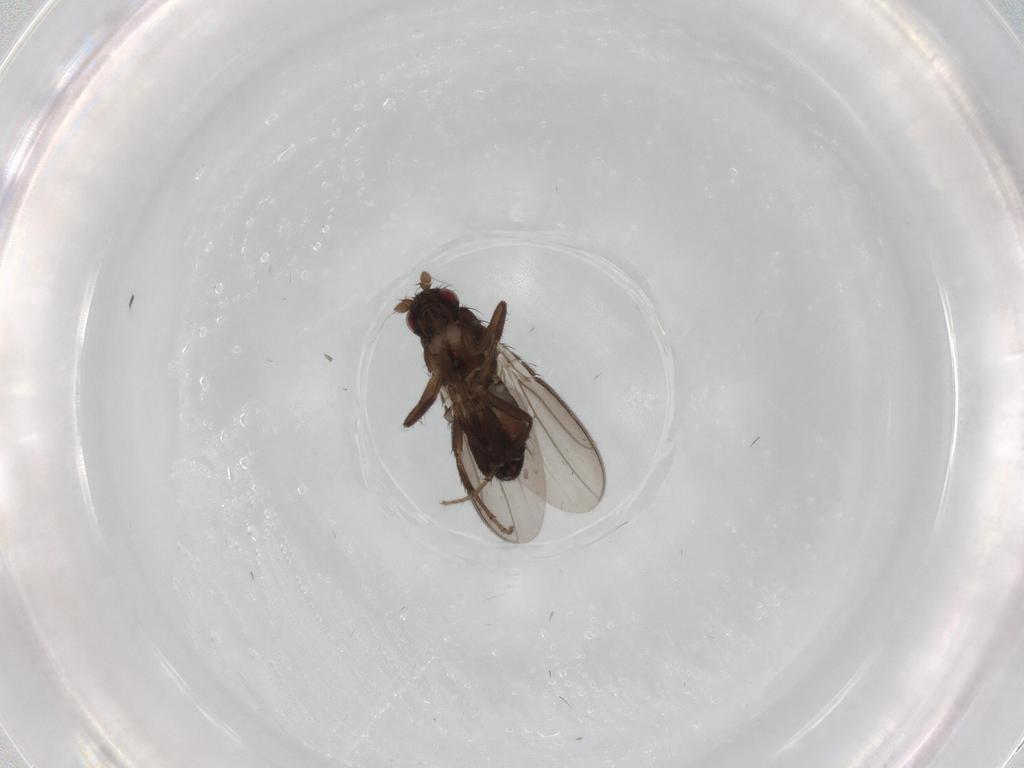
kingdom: Animalia
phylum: Arthropoda
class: Insecta
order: Diptera
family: Sphaeroceridae
